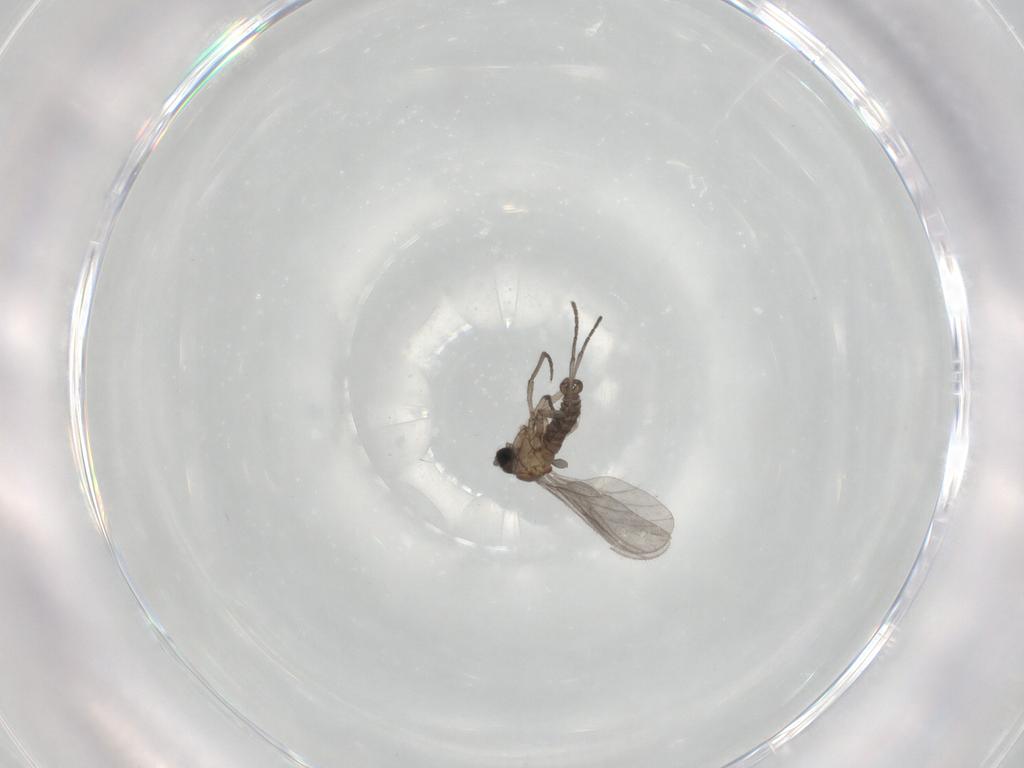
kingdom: Animalia
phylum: Arthropoda
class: Insecta
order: Diptera
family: Sciaridae
